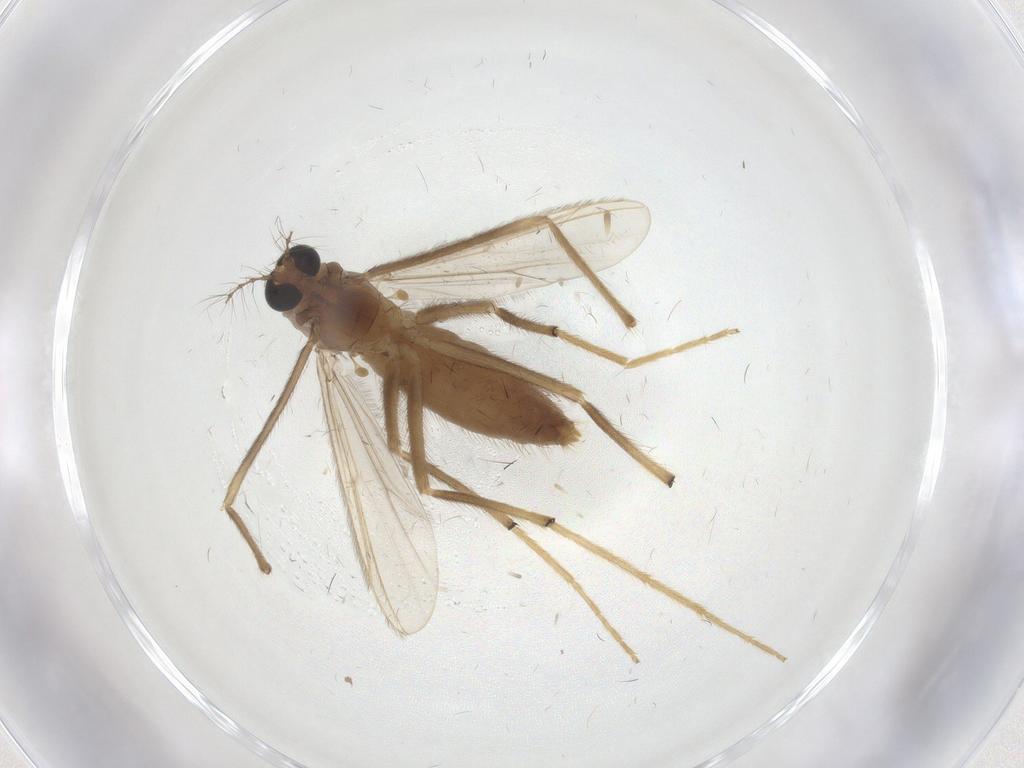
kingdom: Animalia
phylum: Arthropoda
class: Insecta
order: Diptera
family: Chironomidae
